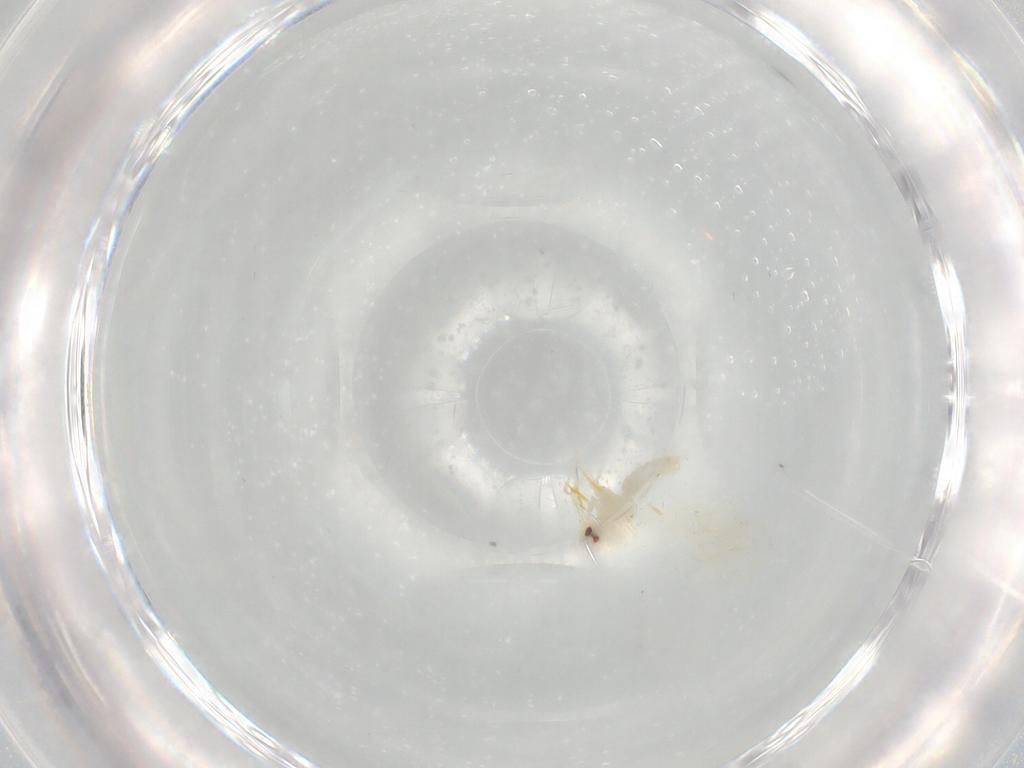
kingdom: Animalia
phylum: Arthropoda
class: Insecta
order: Hemiptera
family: Aleyrodidae
